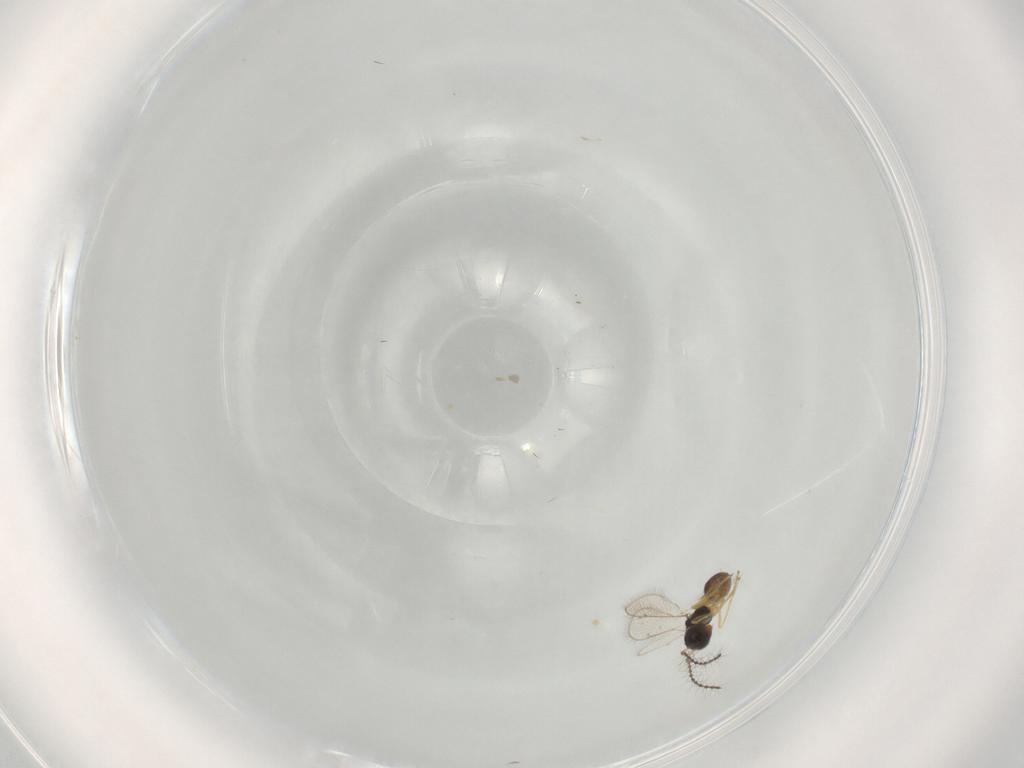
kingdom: Animalia
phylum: Arthropoda
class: Insecta
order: Hymenoptera
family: Pteromalidae
